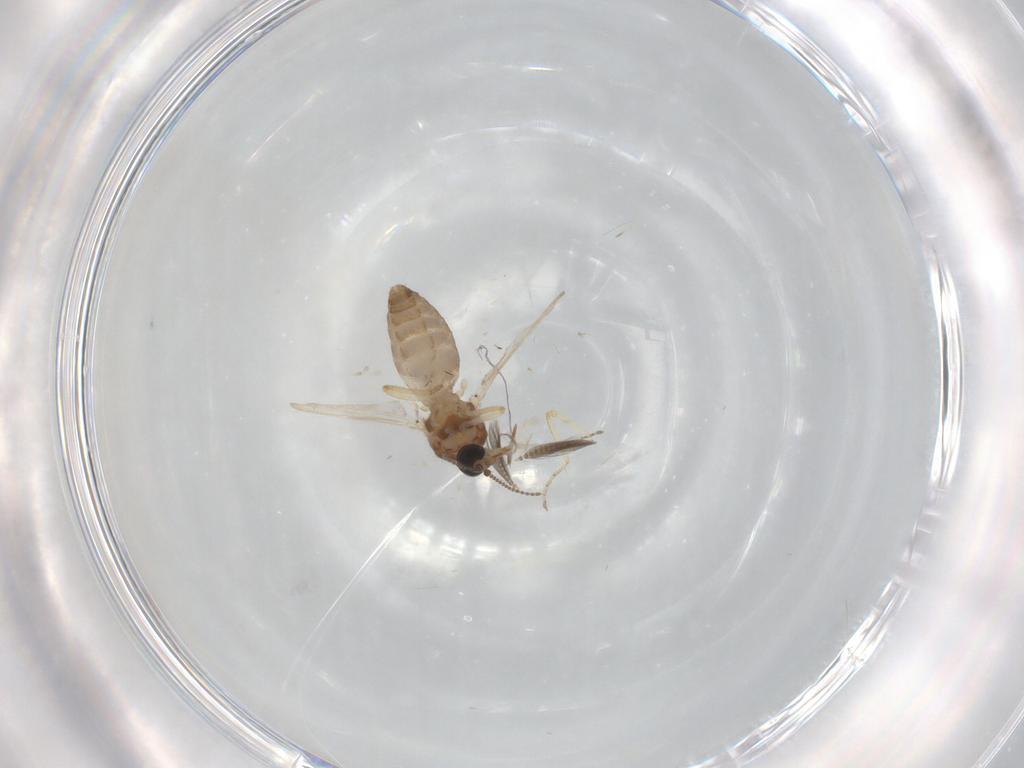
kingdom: Animalia
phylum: Arthropoda
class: Insecta
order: Diptera
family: Ceratopogonidae
